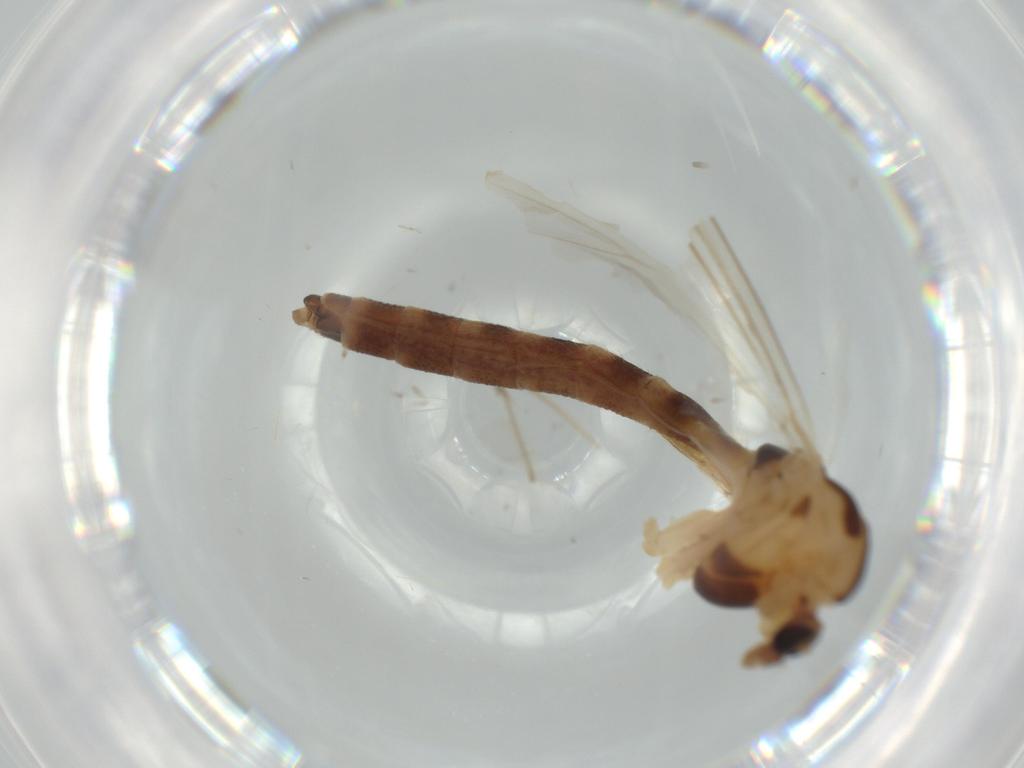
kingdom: Animalia
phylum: Arthropoda
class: Insecta
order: Diptera
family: Chironomidae
